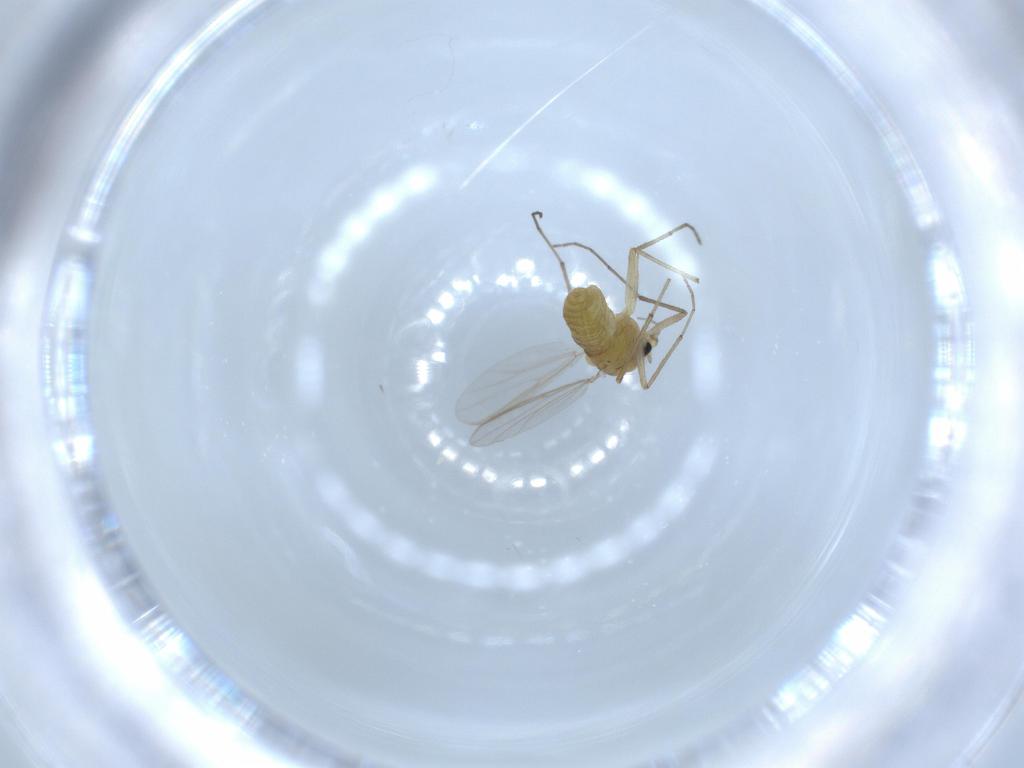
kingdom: Animalia
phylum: Arthropoda
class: Insecta
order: Diptera
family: Chironomidae
